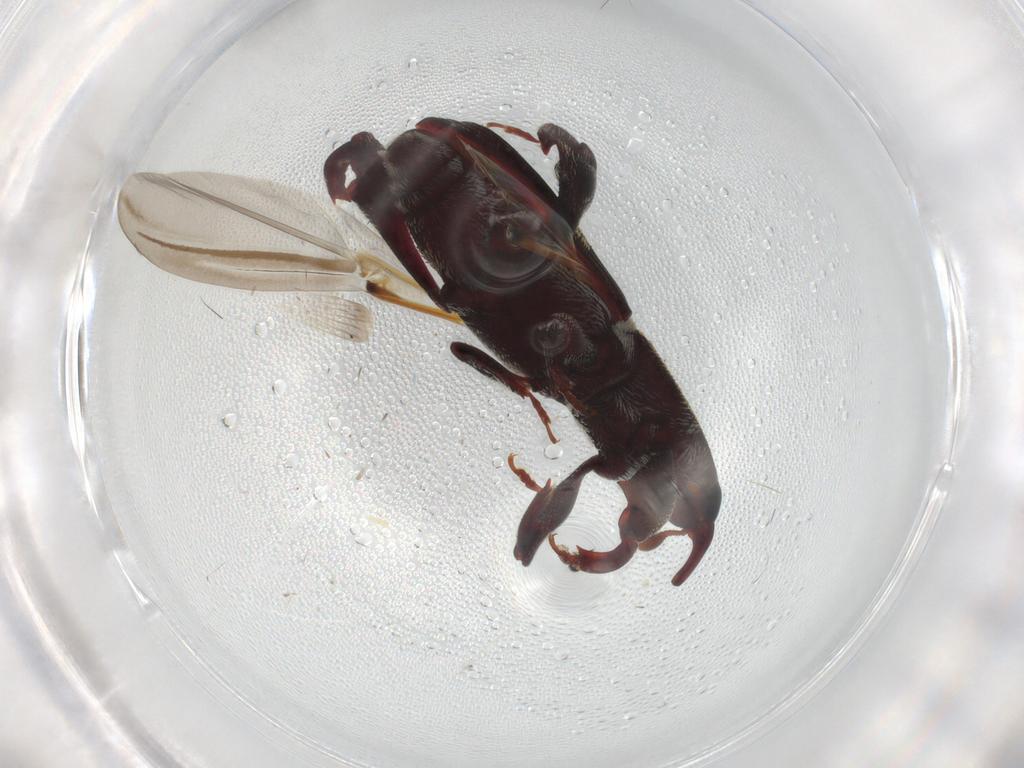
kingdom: Animalia
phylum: Arthropoda
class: Insecta
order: Coleoptera
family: Curculionidae
